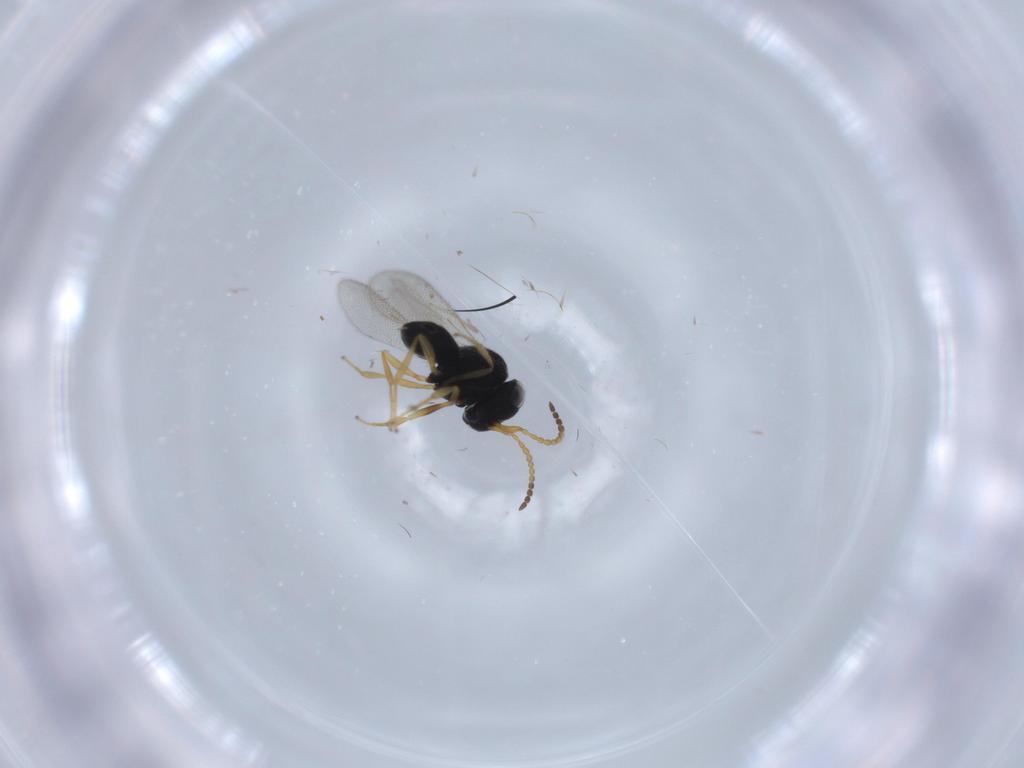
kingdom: Animalia
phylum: Arthropoda
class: Insecta
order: Hymenoptera
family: Scelionidae
